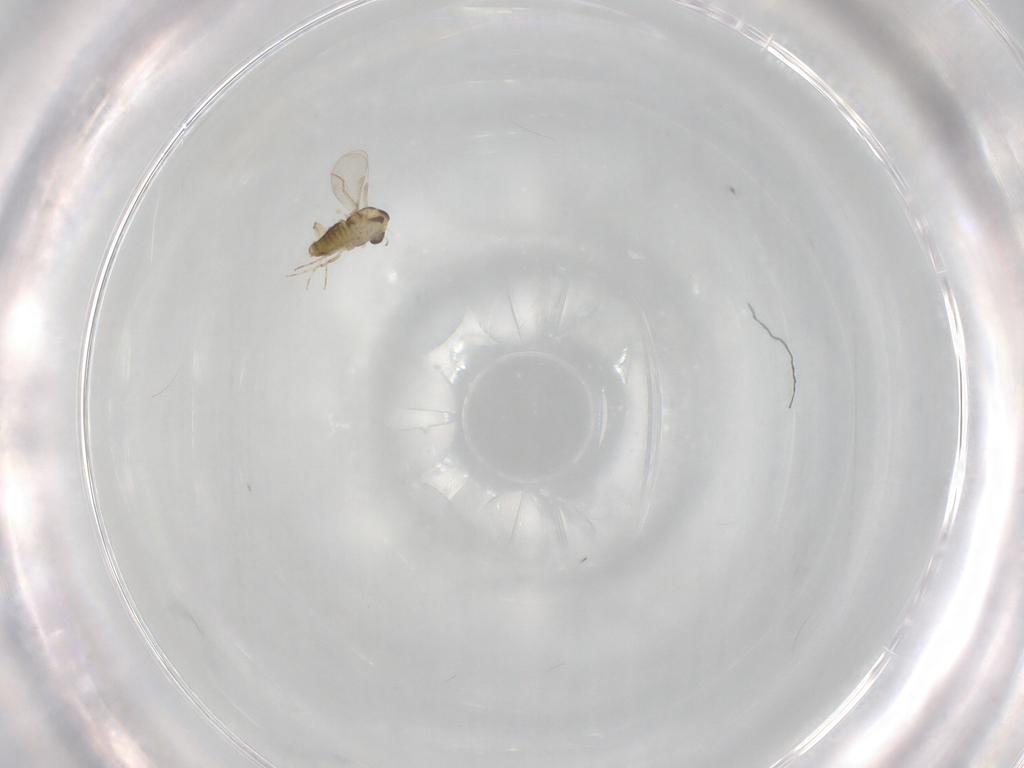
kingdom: Animalia
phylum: Arthropoda
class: Insecta
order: Diptera
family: Chironomidae
